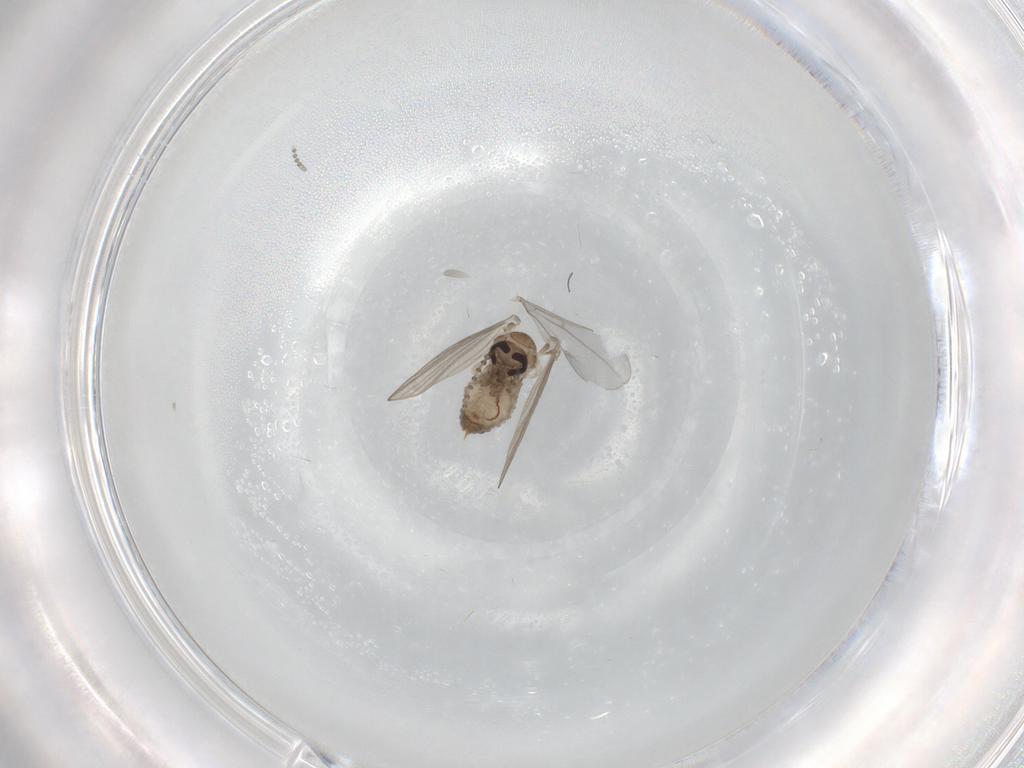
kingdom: Animalia
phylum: Arthropoda
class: Insecta
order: Diptera
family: Psychodidae
